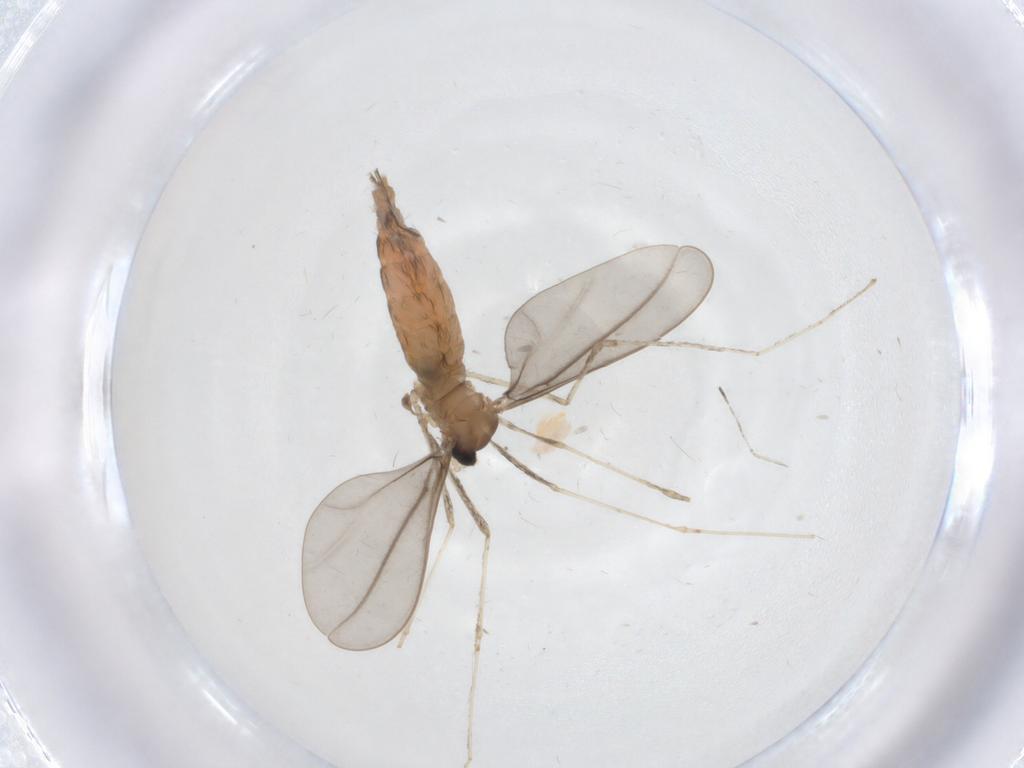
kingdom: Animalia
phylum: Arthropoda
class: Insecta
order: Diptera
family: Chironomidae
